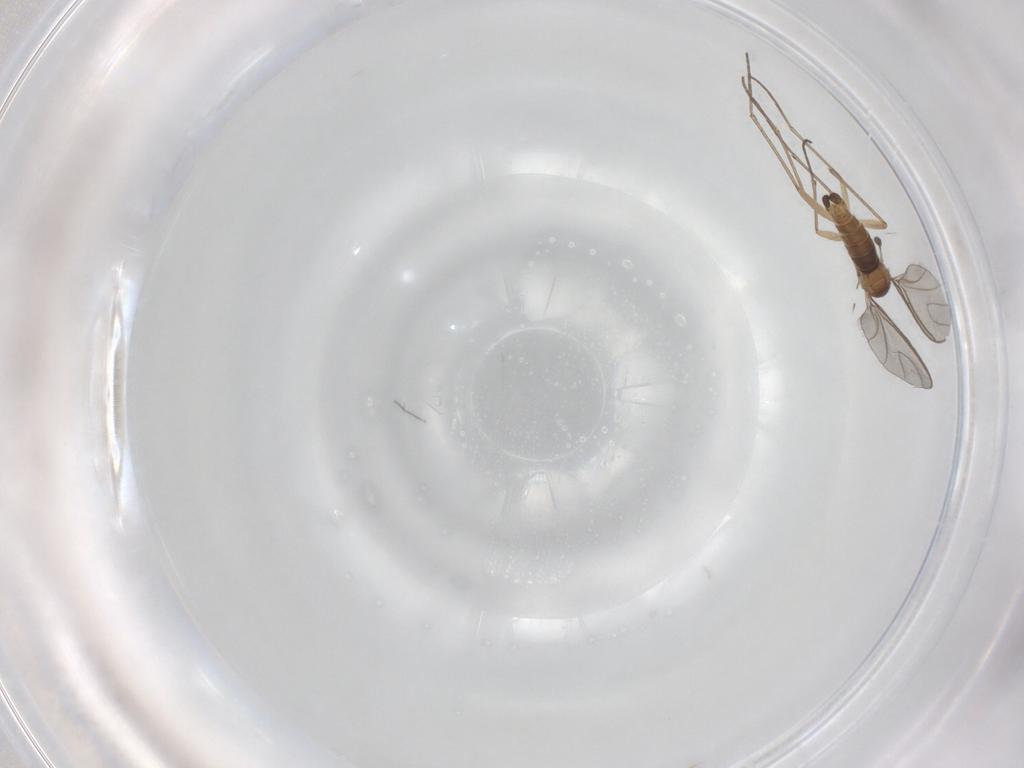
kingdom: Animalia
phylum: Arthropoda
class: Insecta
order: Diptera
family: Sciaridae
